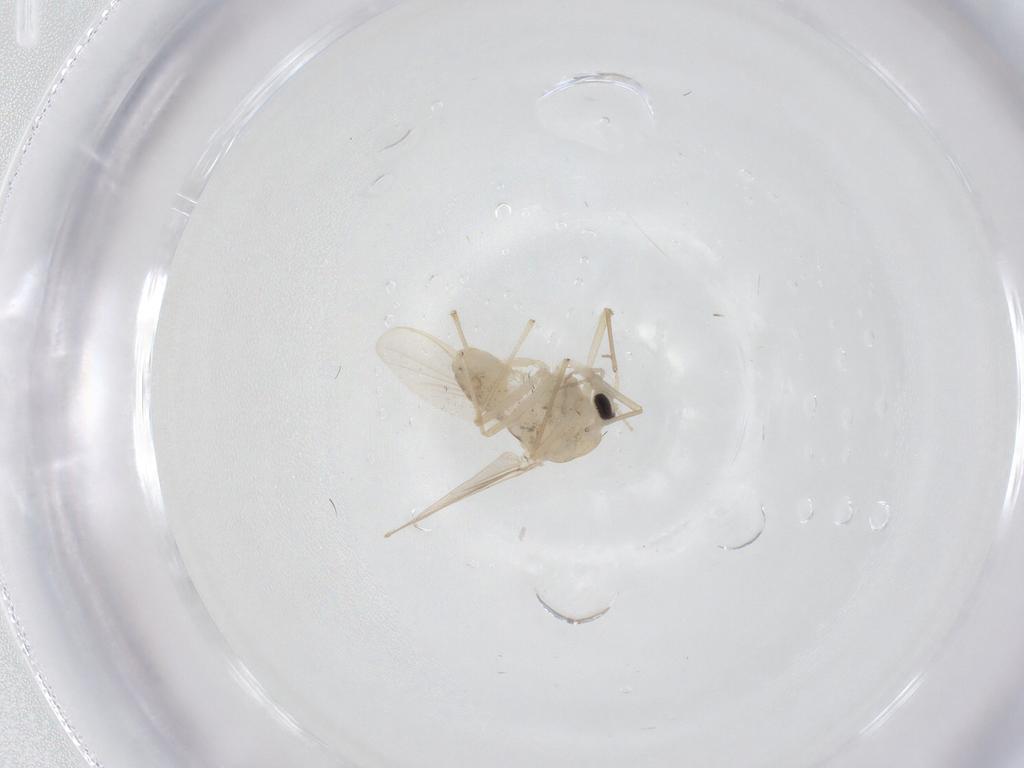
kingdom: Animalia
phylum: Arthropoda
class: Insecta
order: Diptera
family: Chironomidae
